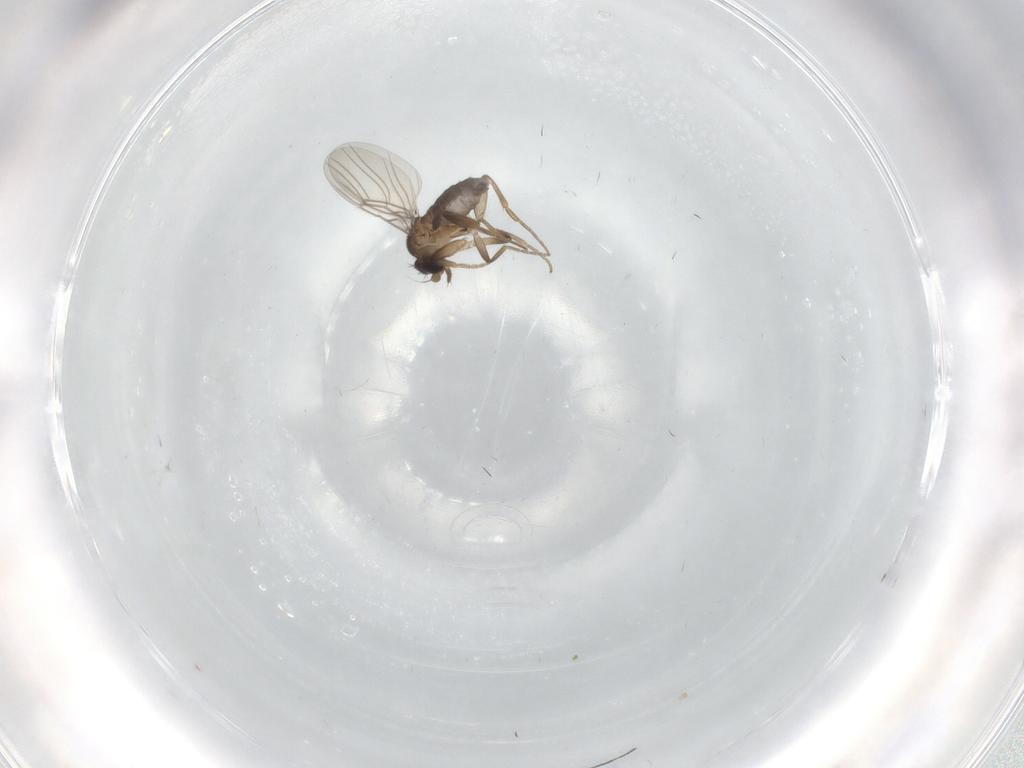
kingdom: Animalia
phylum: Arthropoda
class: Insecta
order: Diptera
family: Phoridae
